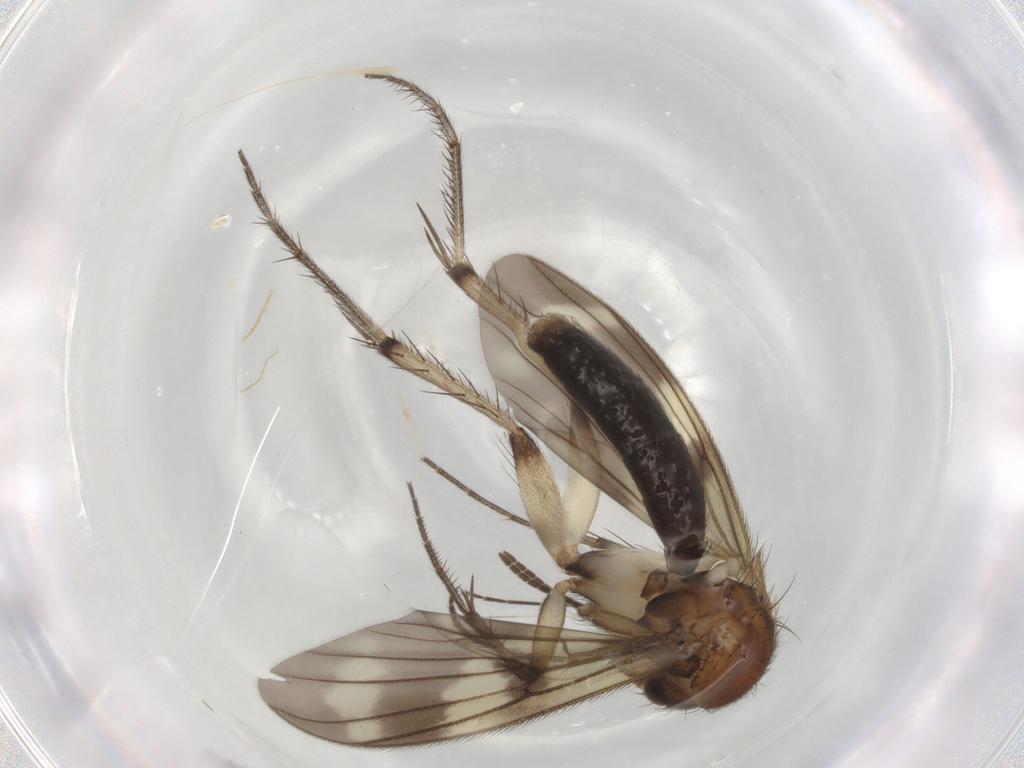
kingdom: Animalia
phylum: Arthropoda
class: Insecta
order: Diptera
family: Mycetophilidae
